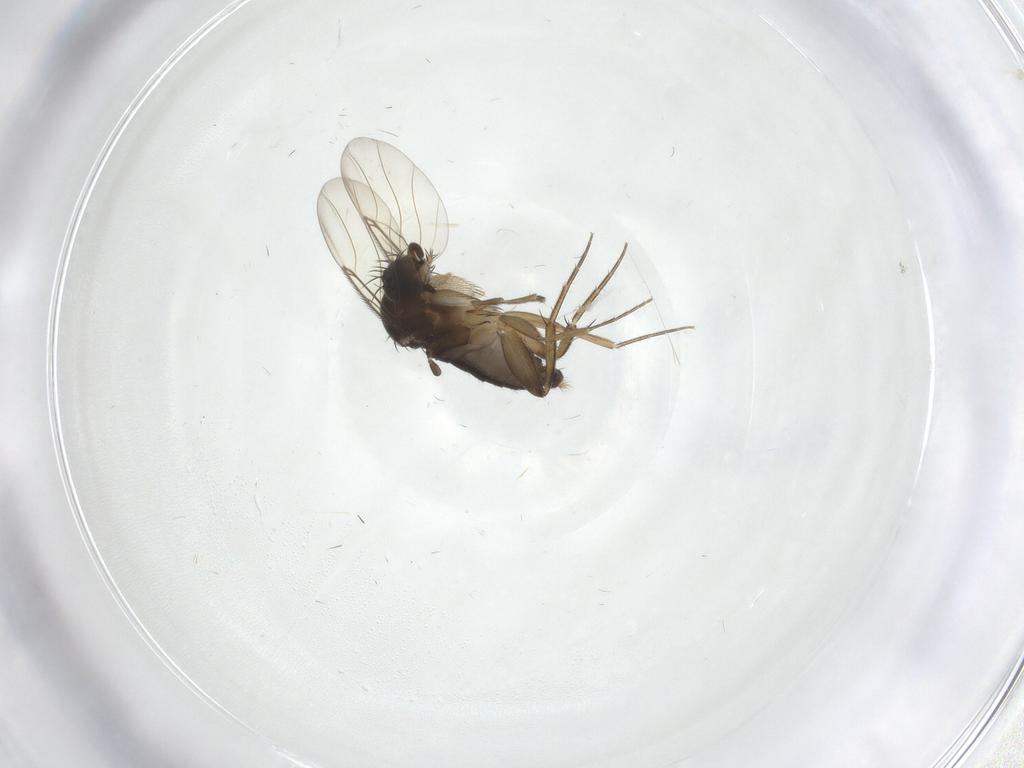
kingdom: Animalia
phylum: Arthropoda
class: Insecta
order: Diptera
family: Phoridae
